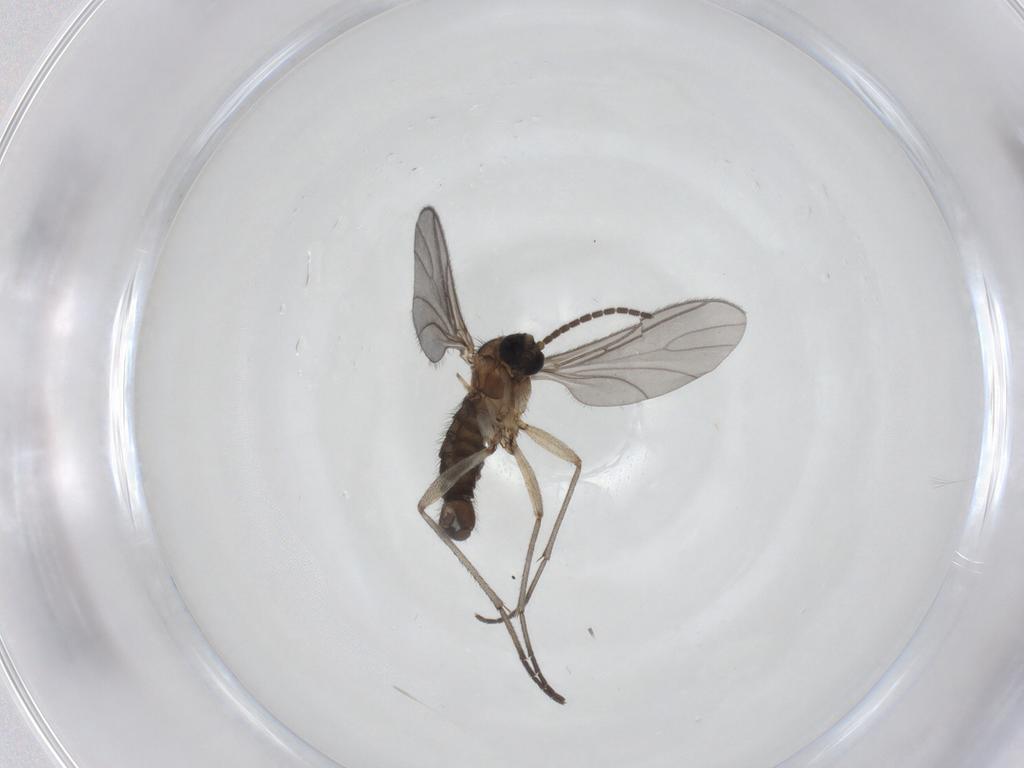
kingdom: Animalia
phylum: Arthropoda
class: Insecta
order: Diptera
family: Sciaridae
